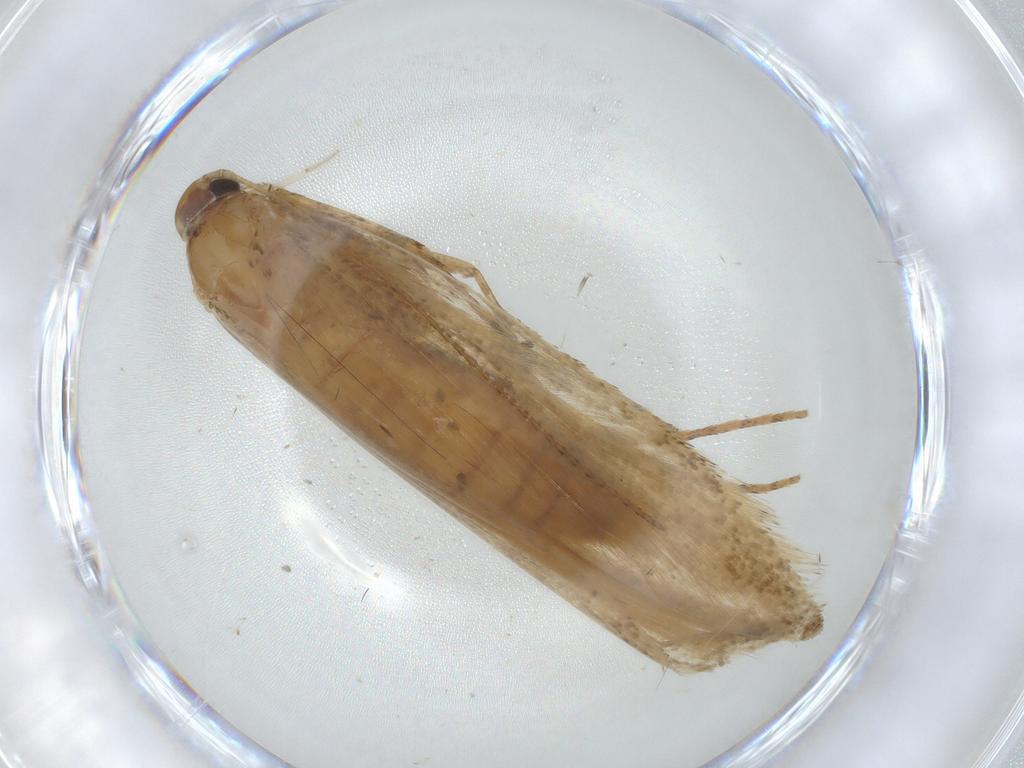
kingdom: Animalia
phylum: Arthropoda
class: Insecta
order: Lepidoptera
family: Crambidae
